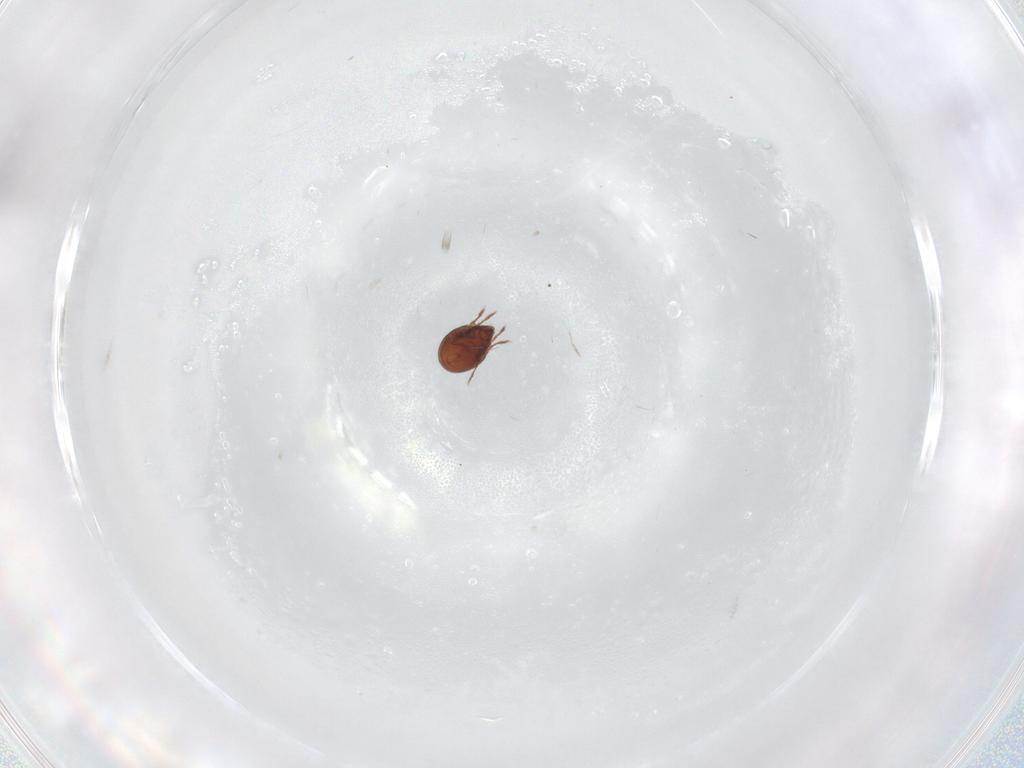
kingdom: Animalia
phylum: Arthropoda
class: Arachnida
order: Sarcoptiformes
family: Ceratozetidae
